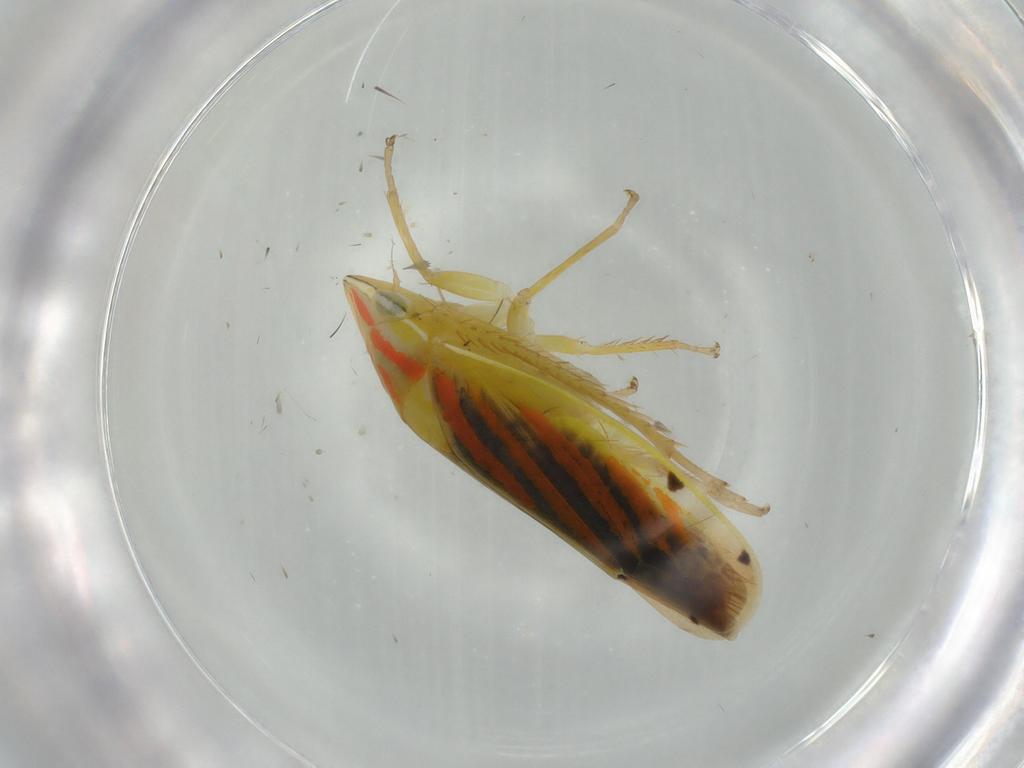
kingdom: Animalia
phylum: Arthropoda
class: Insecta
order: Hemiptera
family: Cicadellidae
